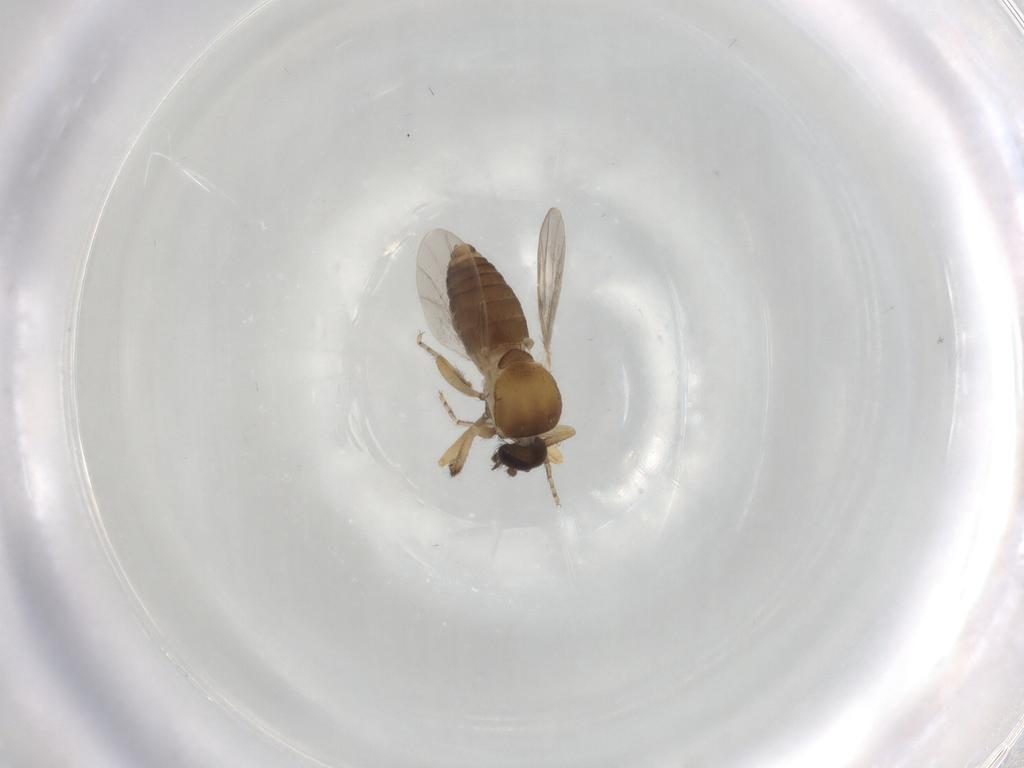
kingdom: Animalia
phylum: Arthropoda
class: Insecta
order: Diptera
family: Ceratopogonidae
